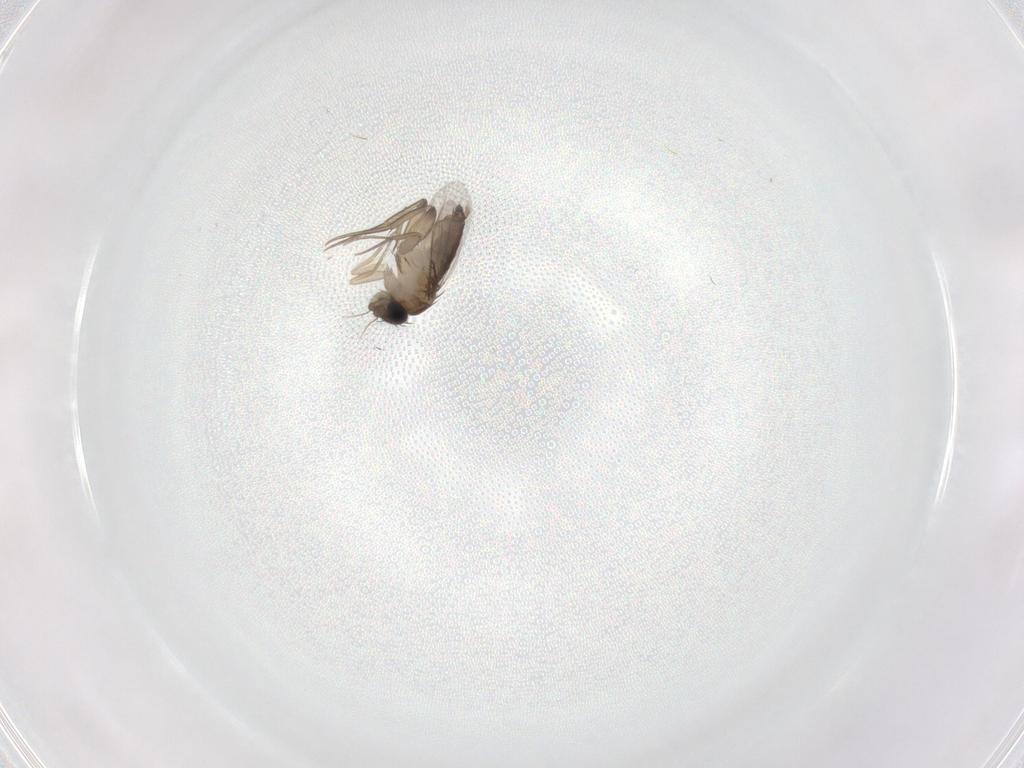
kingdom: Animalia
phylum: Arthropoda
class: Insecta
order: Diptera
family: Phoridae
